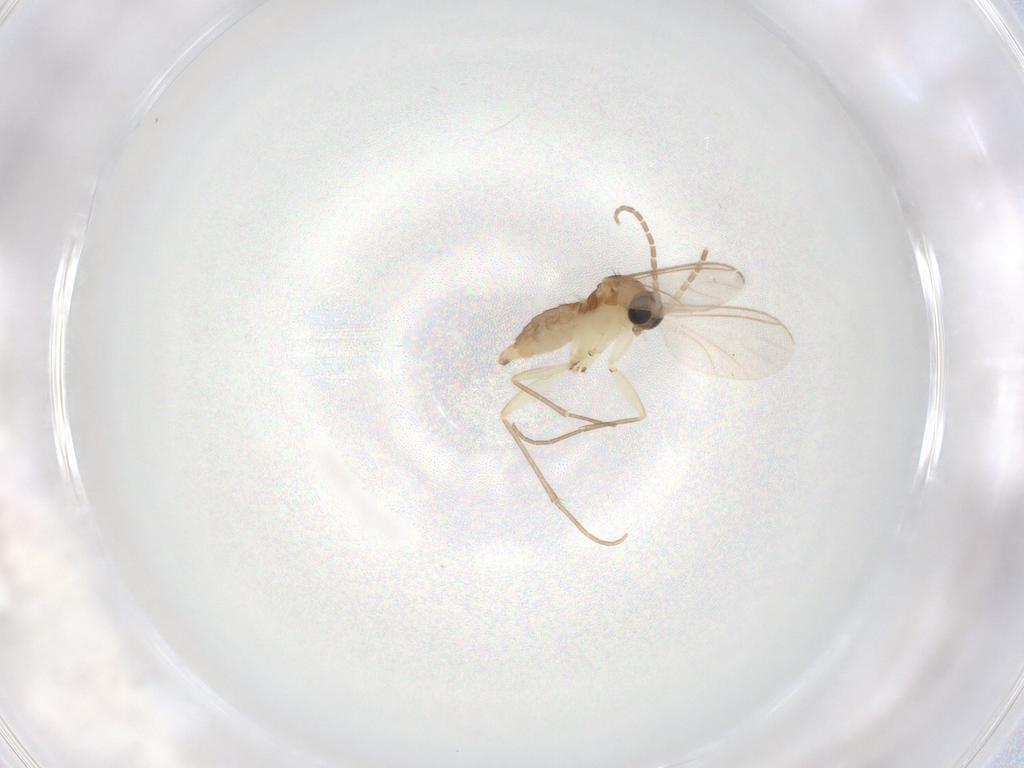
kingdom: Animalia
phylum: Arthropoda
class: Insecta
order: Diptera
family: Sciaridae
